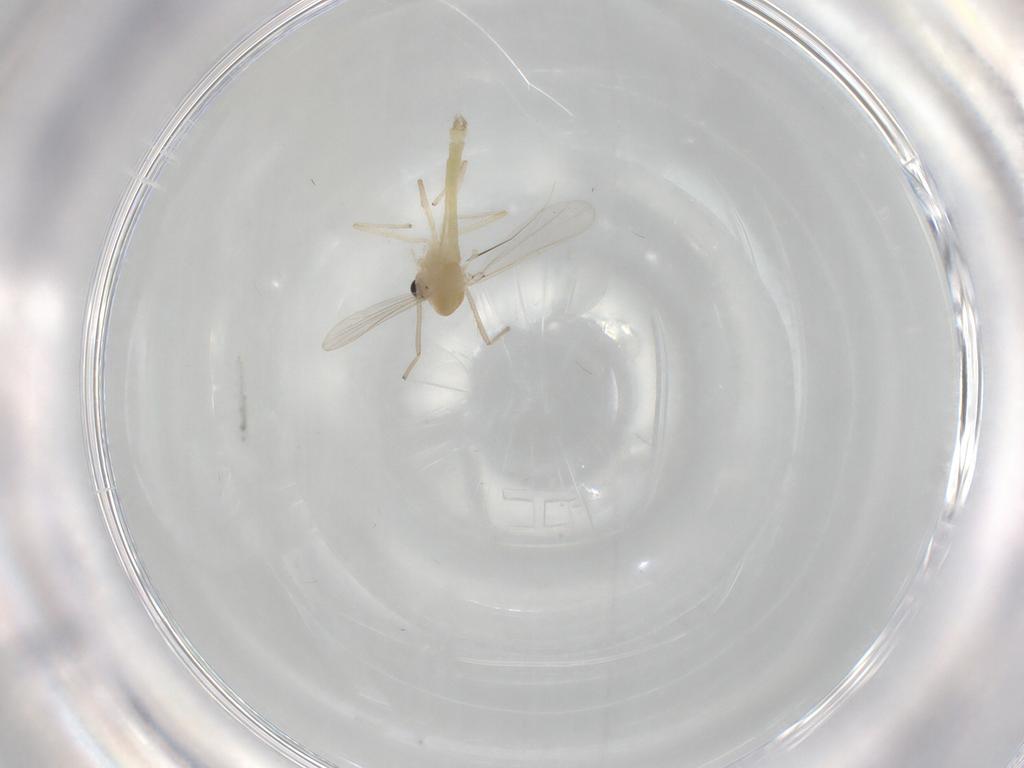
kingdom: Animalia
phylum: Arthropoda
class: Insecta
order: Diptera
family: Chironomidae
